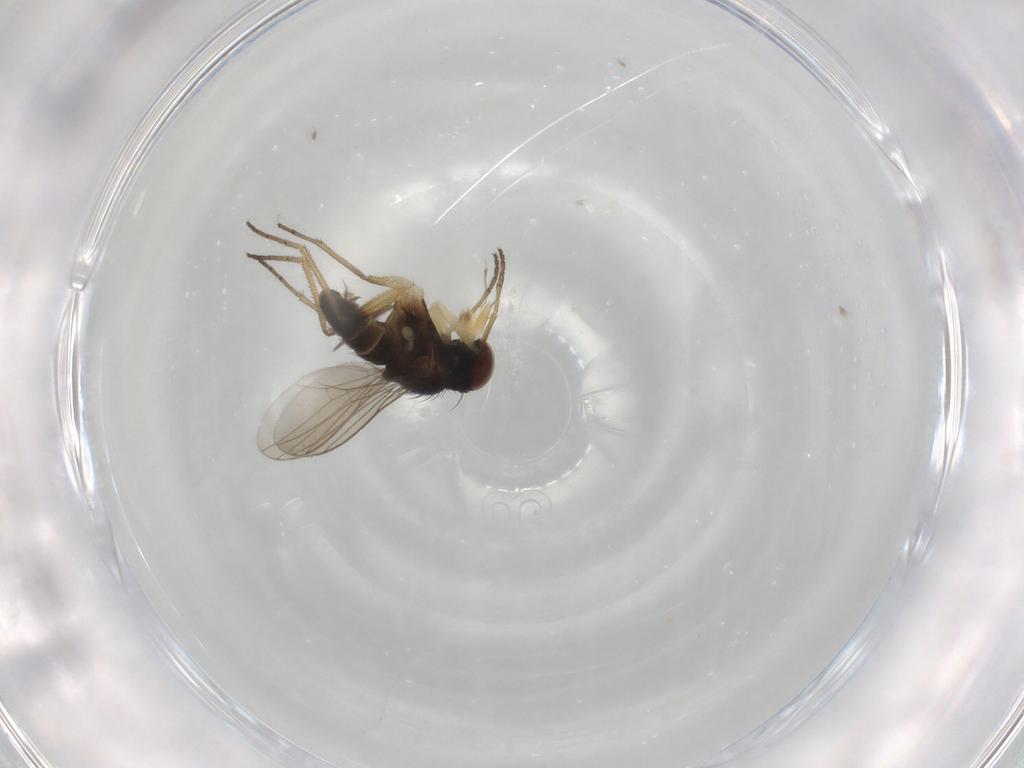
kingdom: Animalia
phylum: Arthropoda
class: Insecta
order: Diptera
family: Dolichopodidae
